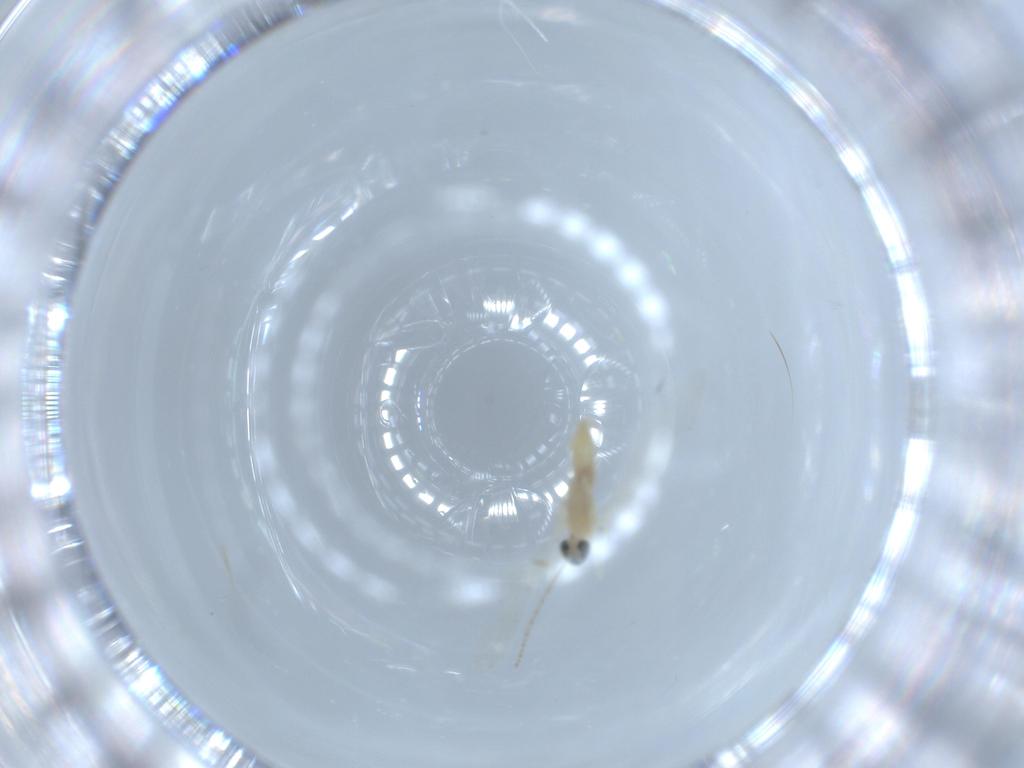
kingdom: Animalia
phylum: Arthropoda
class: Insecta
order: Diptera
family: Cecidomyiidae
